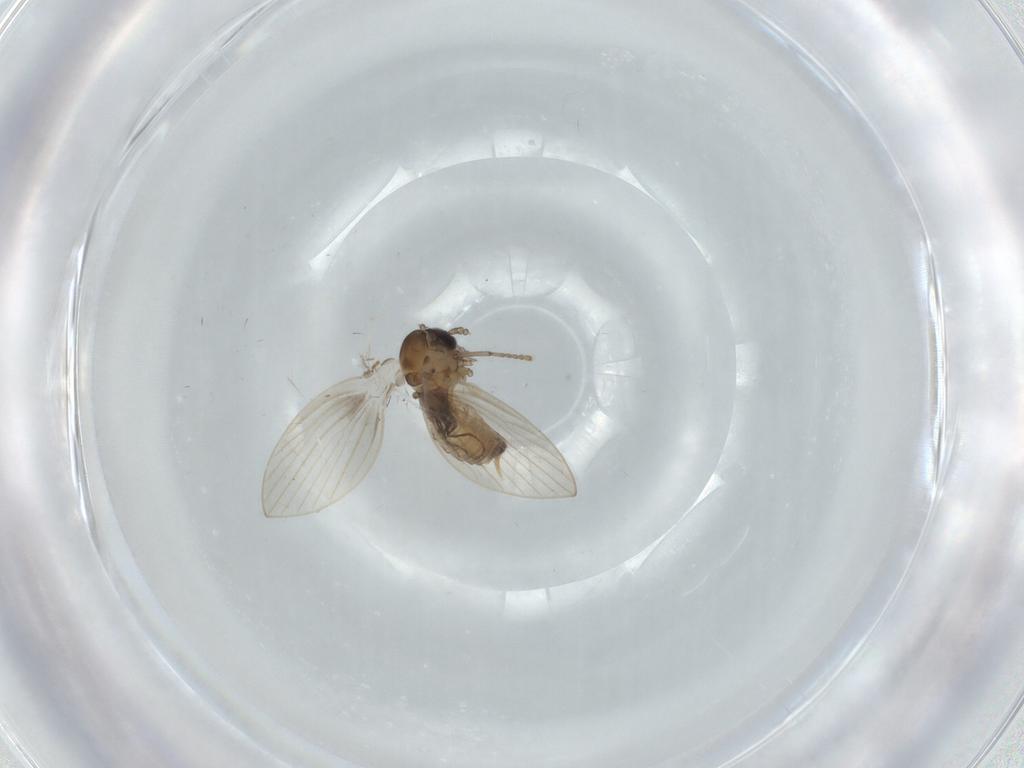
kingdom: Animalia
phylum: Arthropoda
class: Insecta
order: Diptera
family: Psychodidae
